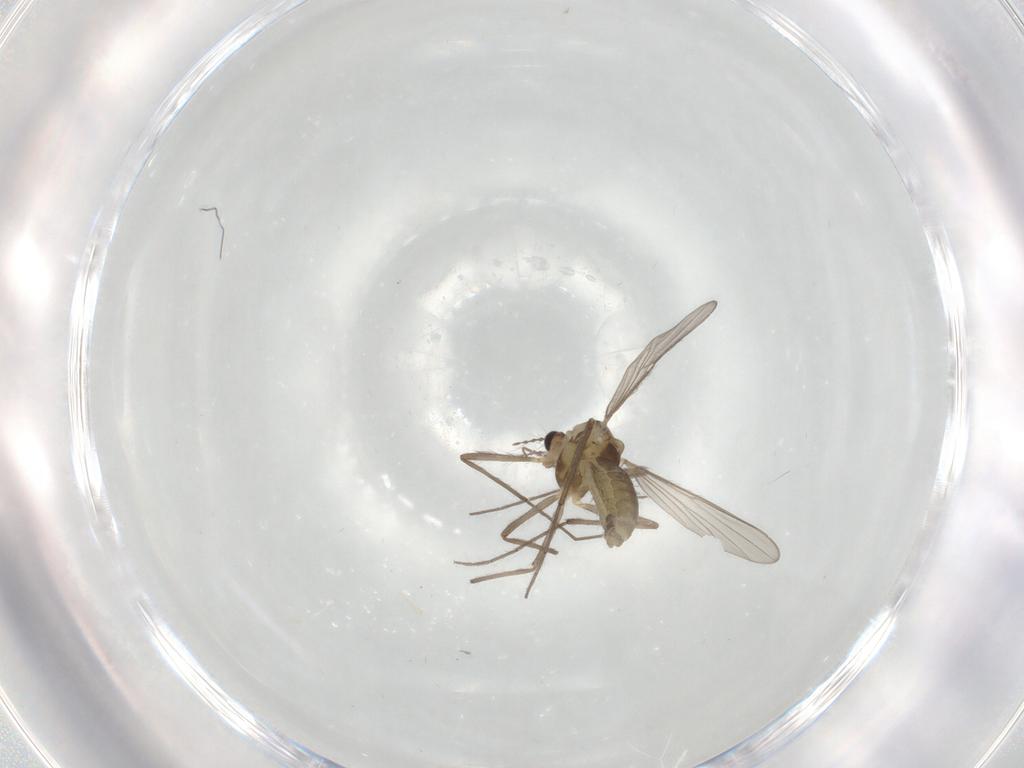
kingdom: Animalia
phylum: Arthropoda
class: Insecta
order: Diptera
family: Chironomidae
